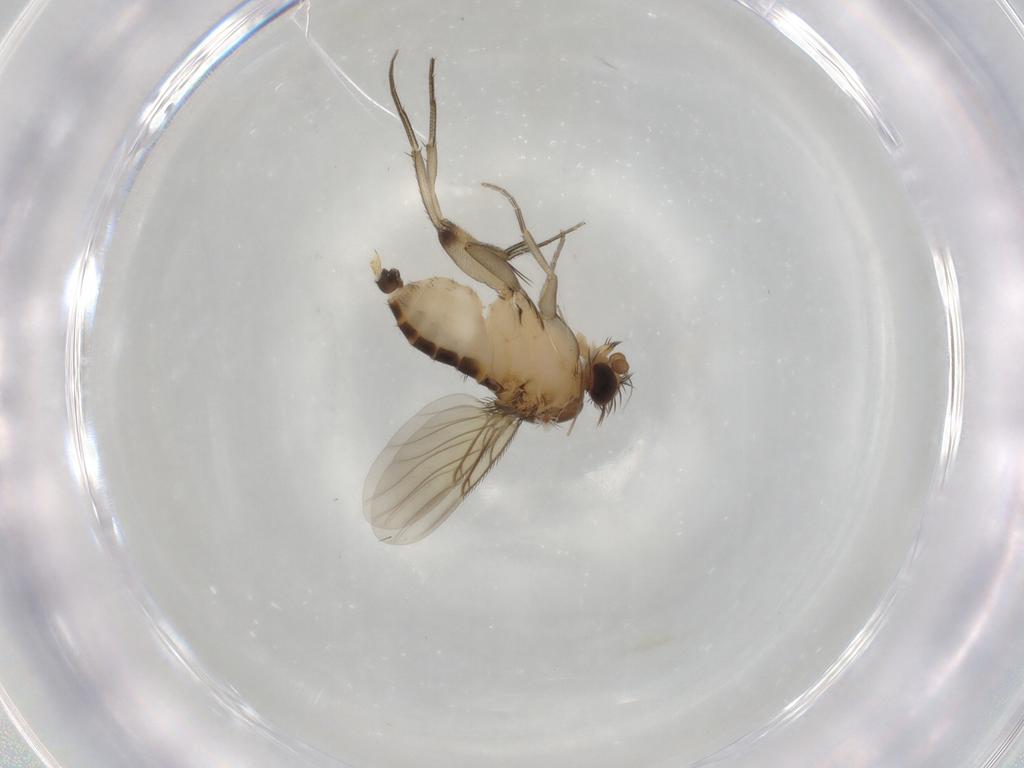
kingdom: Animalia
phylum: Arthropoda
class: Insecta
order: Diptera
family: Phoridae
